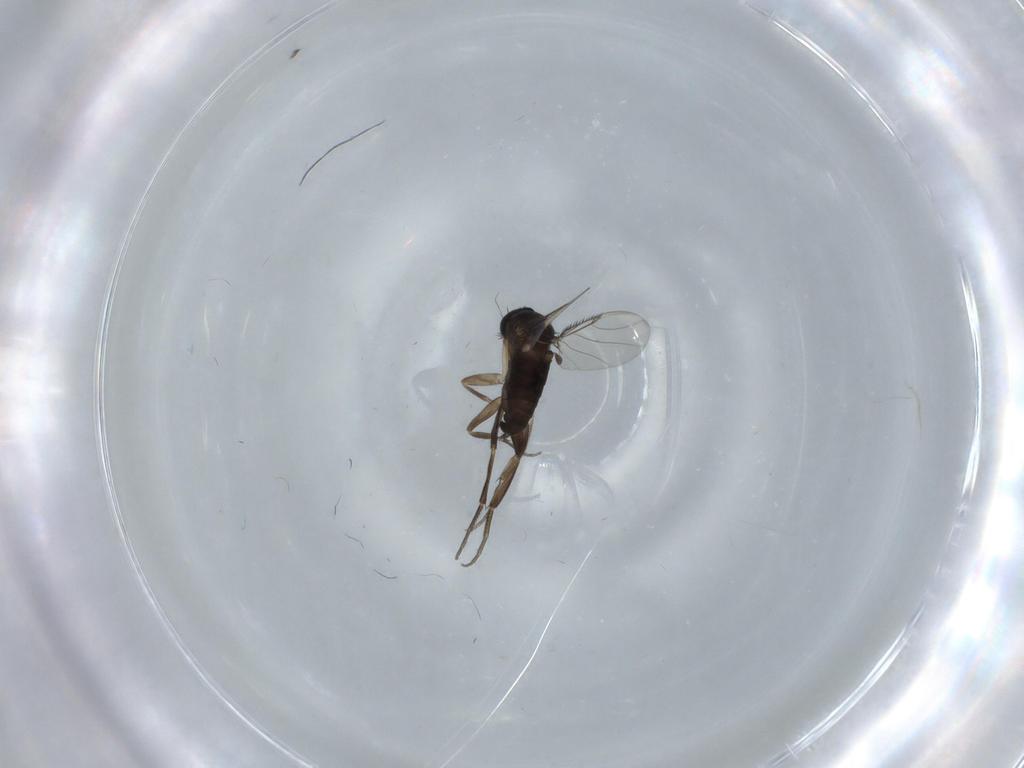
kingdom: Animalia
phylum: Arthropoda
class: Insecta
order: Diptera
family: Phoridae
